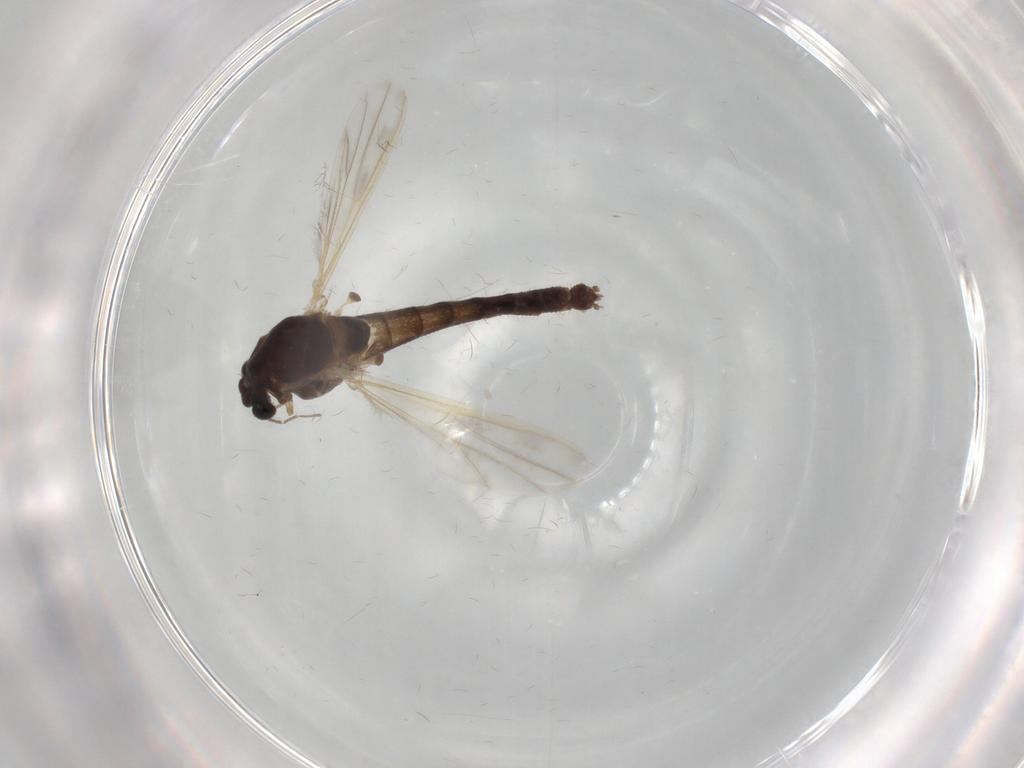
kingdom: Animalia
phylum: Arthropoda
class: Insecta
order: Diptera
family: Chironomidae
